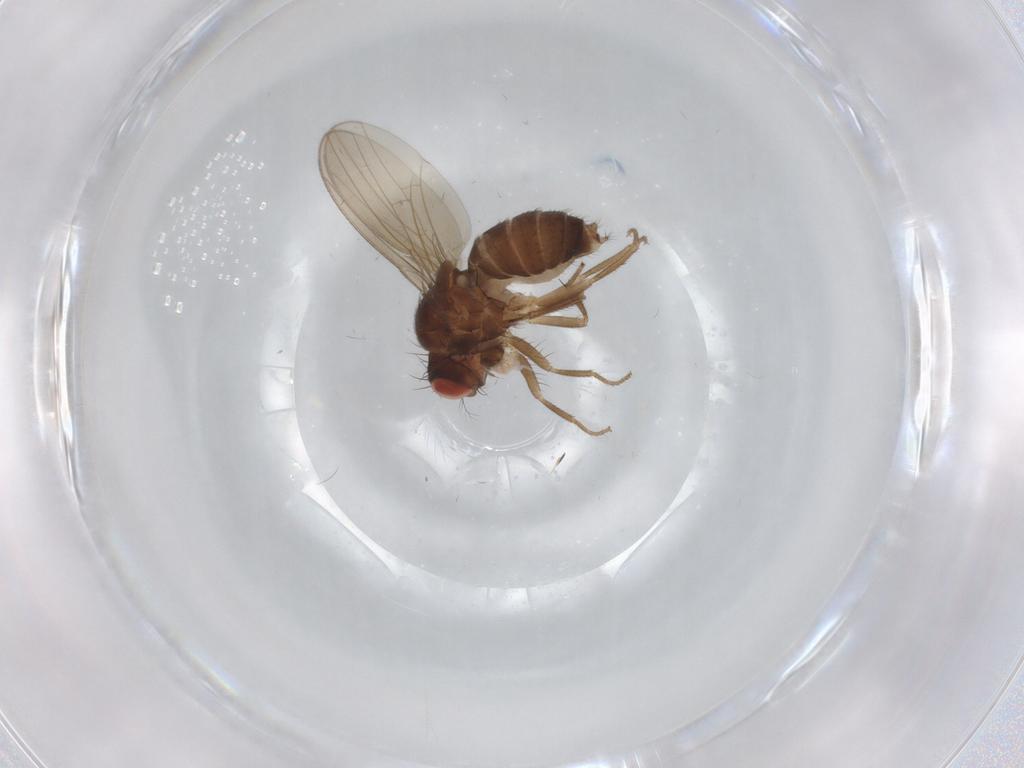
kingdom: Animalia
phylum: Arthropoda
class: Insecta
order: Diptera
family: Drosophilidae
